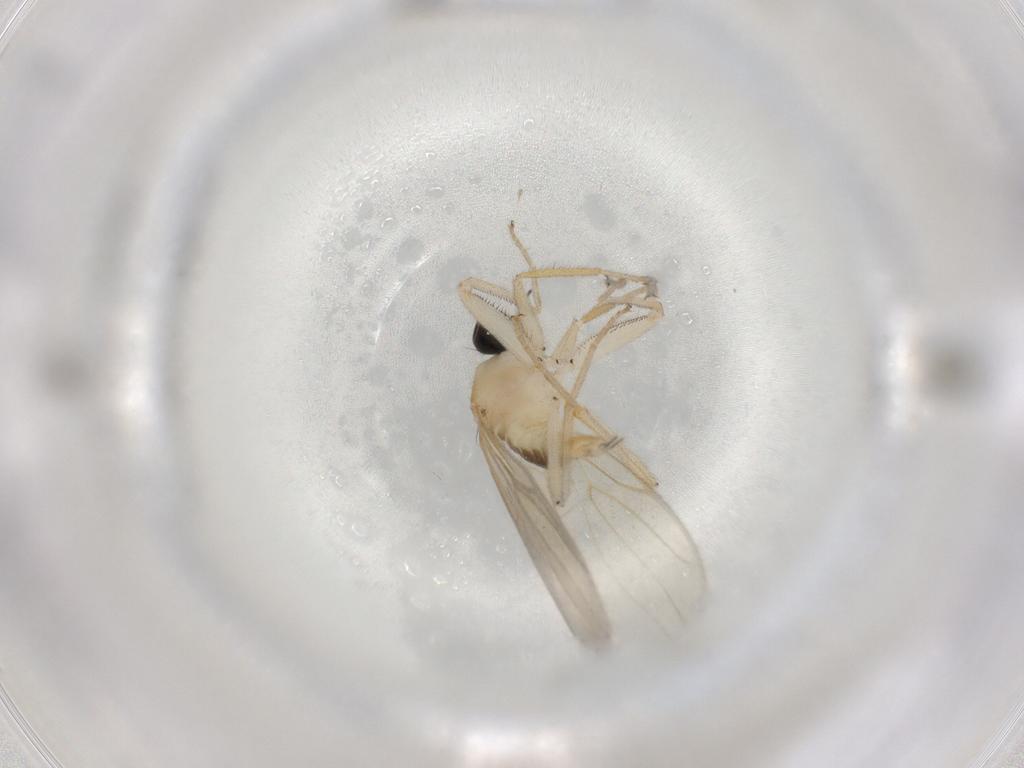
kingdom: Animalia
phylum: Arthropoda
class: Insecta
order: Diptera
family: Hybotidae
